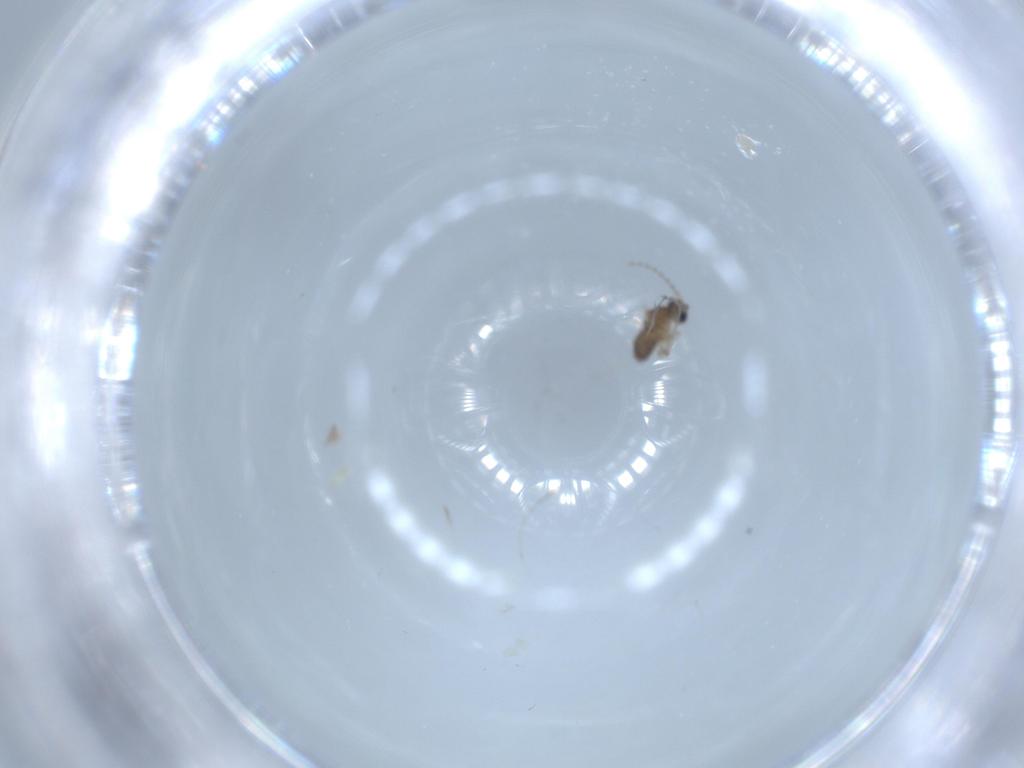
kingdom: Animalia
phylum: Arthropoda
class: Insecta
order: Diptera
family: Cecidomyiidae
